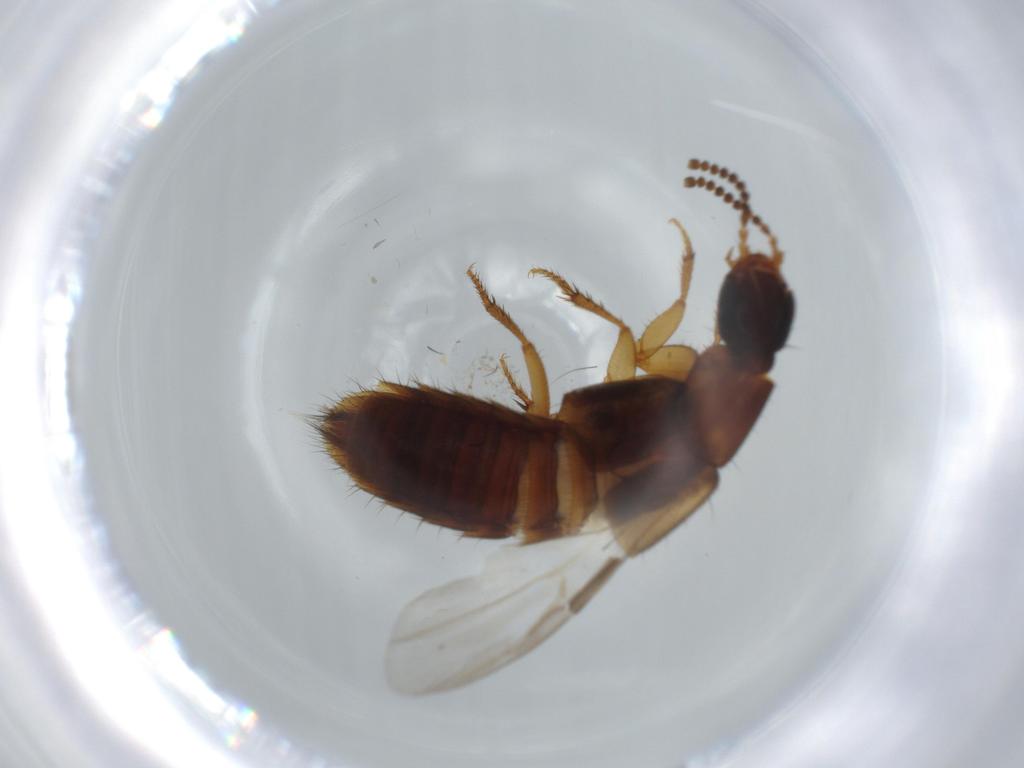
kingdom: Animalia
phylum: Arthropoda
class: Insecta
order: Coleoptera
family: Staphylinidae
